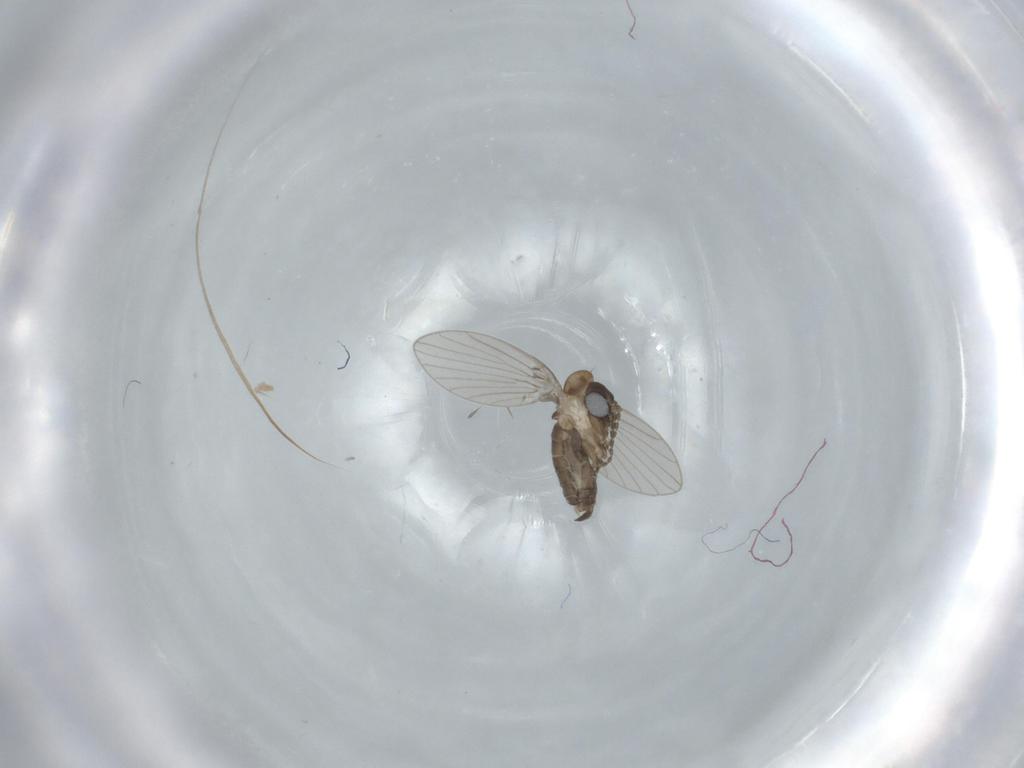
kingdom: Animalia
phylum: Arthropoda
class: Insecta
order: Diptera
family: Psychodidae
